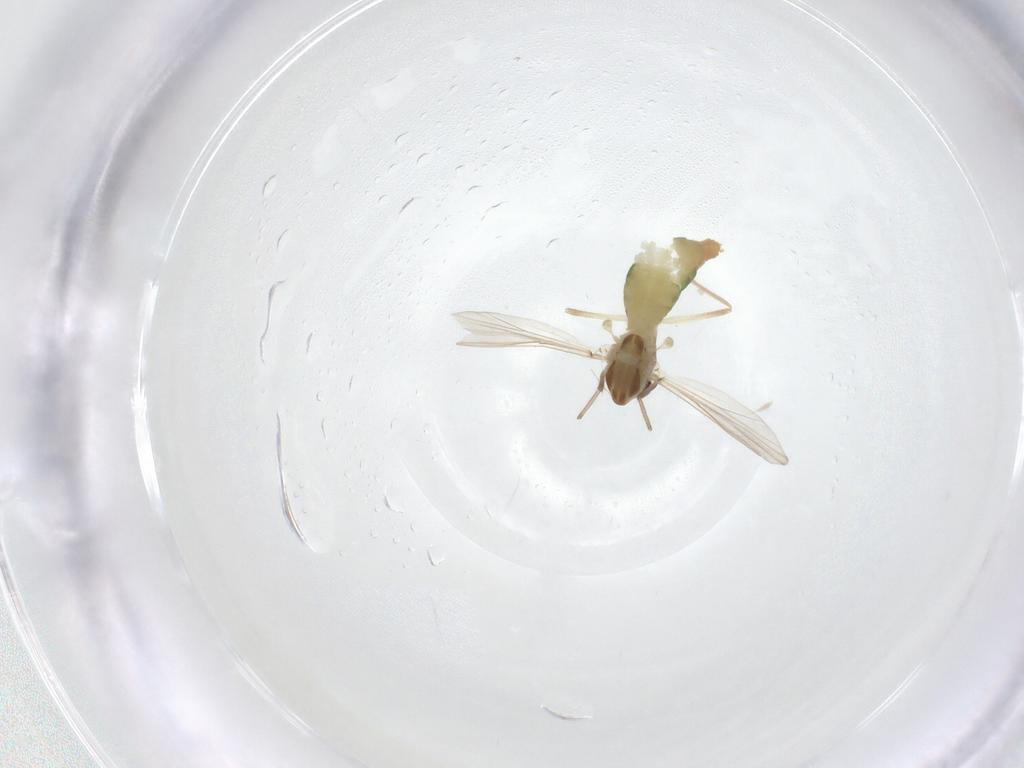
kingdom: Animalia
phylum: Arthropoda
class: Insecta
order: Diptera
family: Chironomidae
